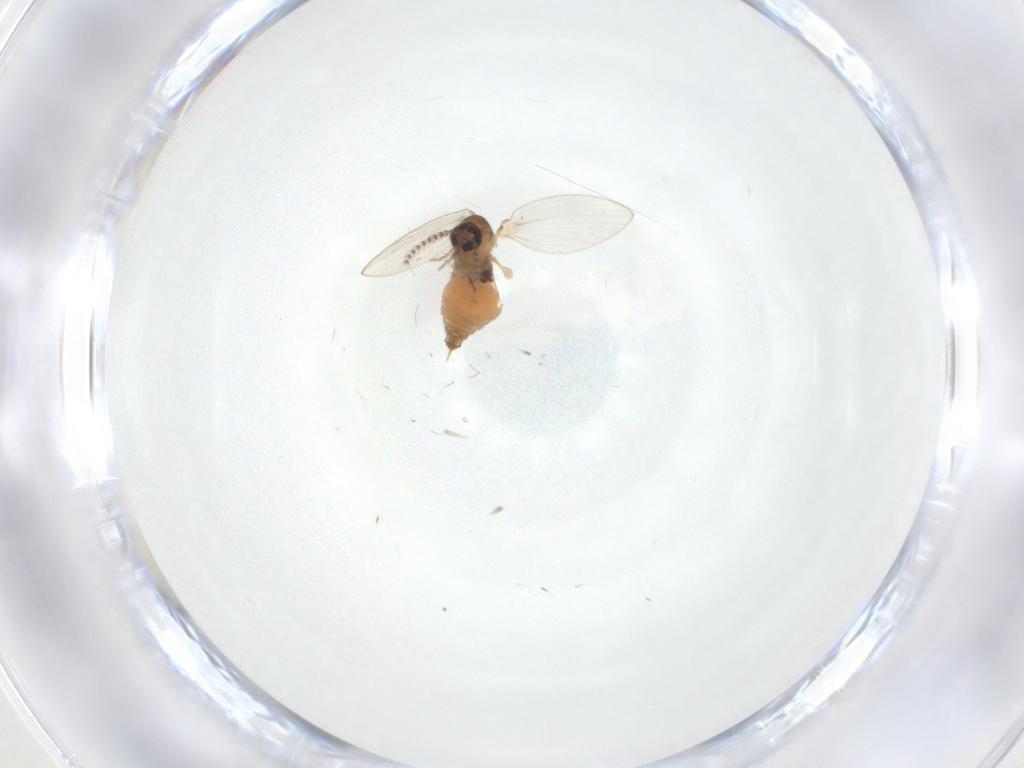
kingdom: Animalia
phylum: Arthropoda
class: Insecta
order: Diptera
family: Psychodidae
